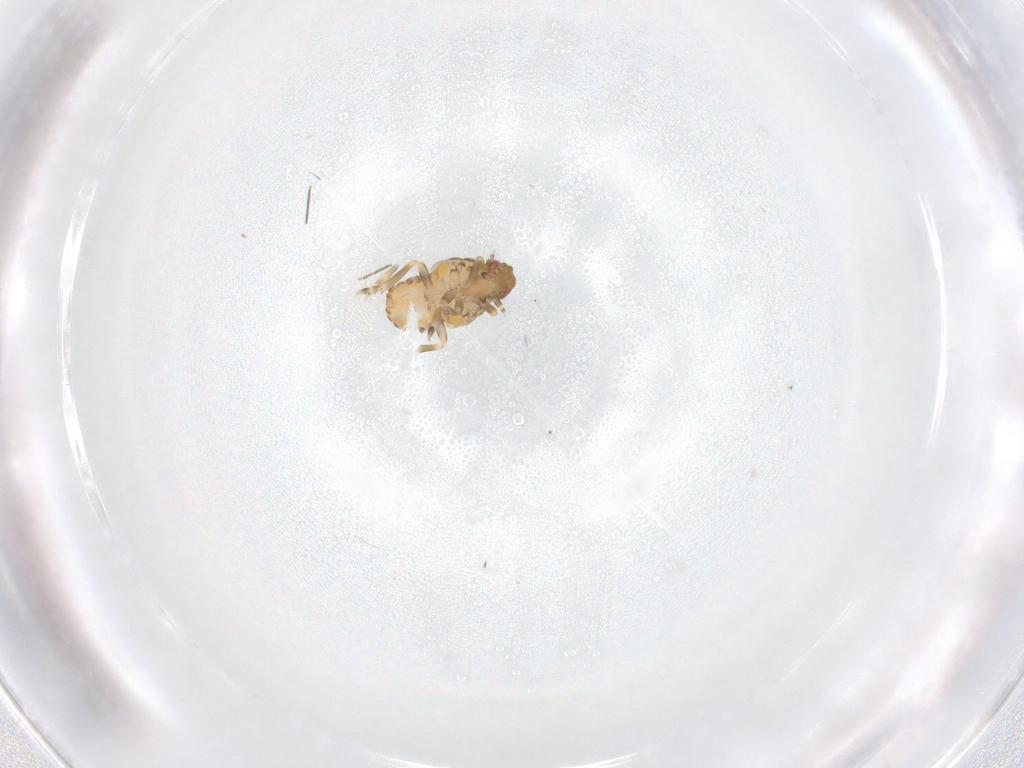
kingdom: Animalia
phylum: Arthropoda
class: Insecta
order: Hemiptera
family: Flatidae
